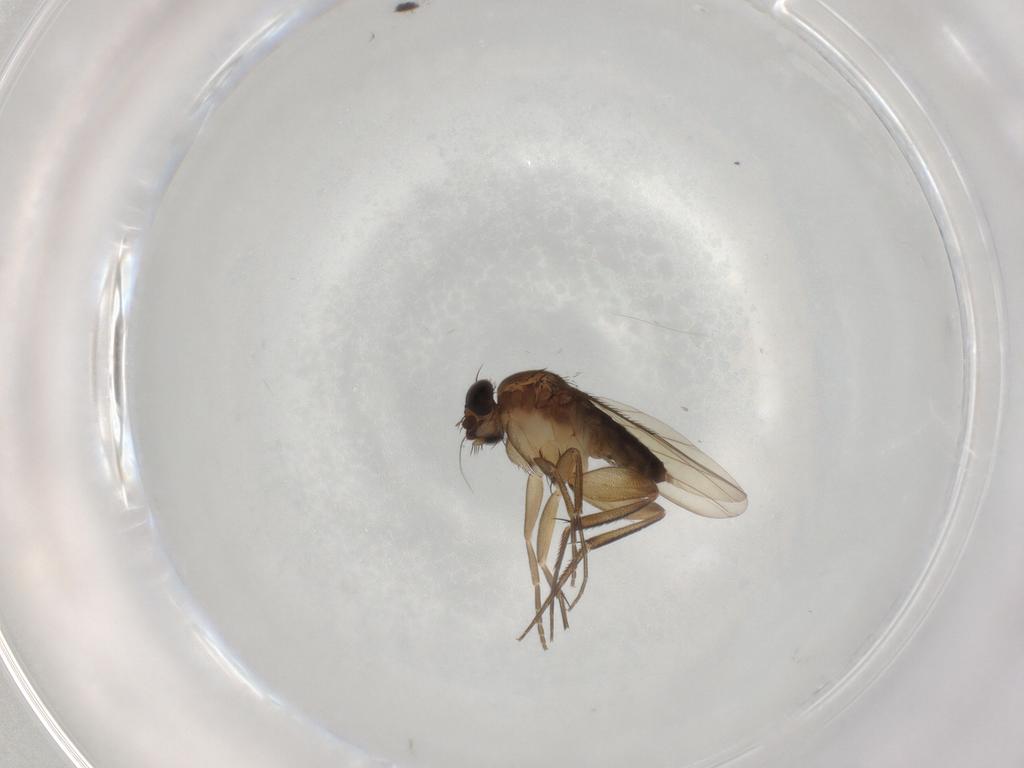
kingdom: Animalia
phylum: Arthropoda
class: Insecta
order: Diptera
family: Phoridae
